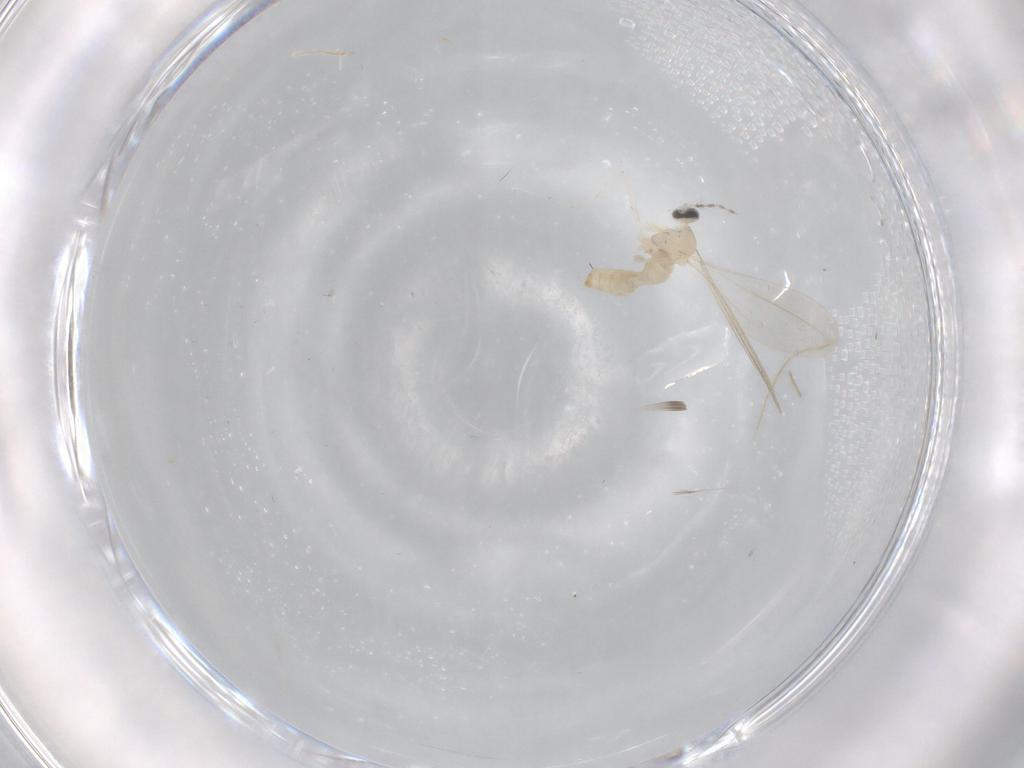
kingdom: Animalia
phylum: Arthropoda
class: Insecta
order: Diptera
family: Cecidomyiidae
